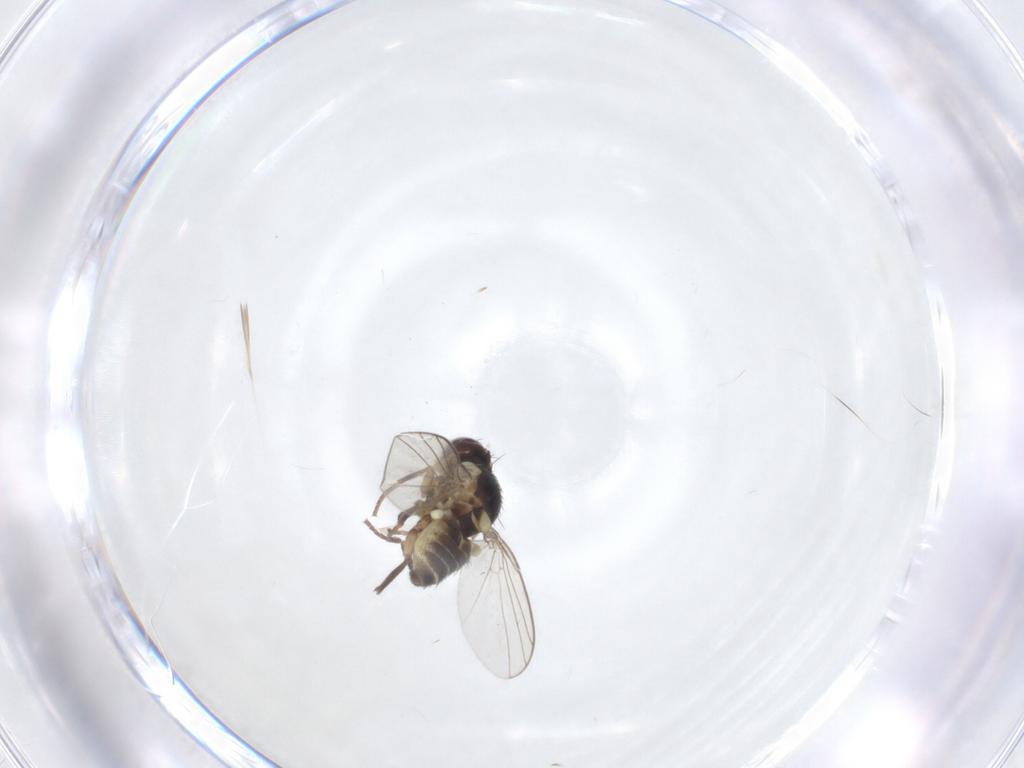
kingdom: Animalia
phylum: Arthropoda
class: Insecta
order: Diptera
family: Agromyzidae
